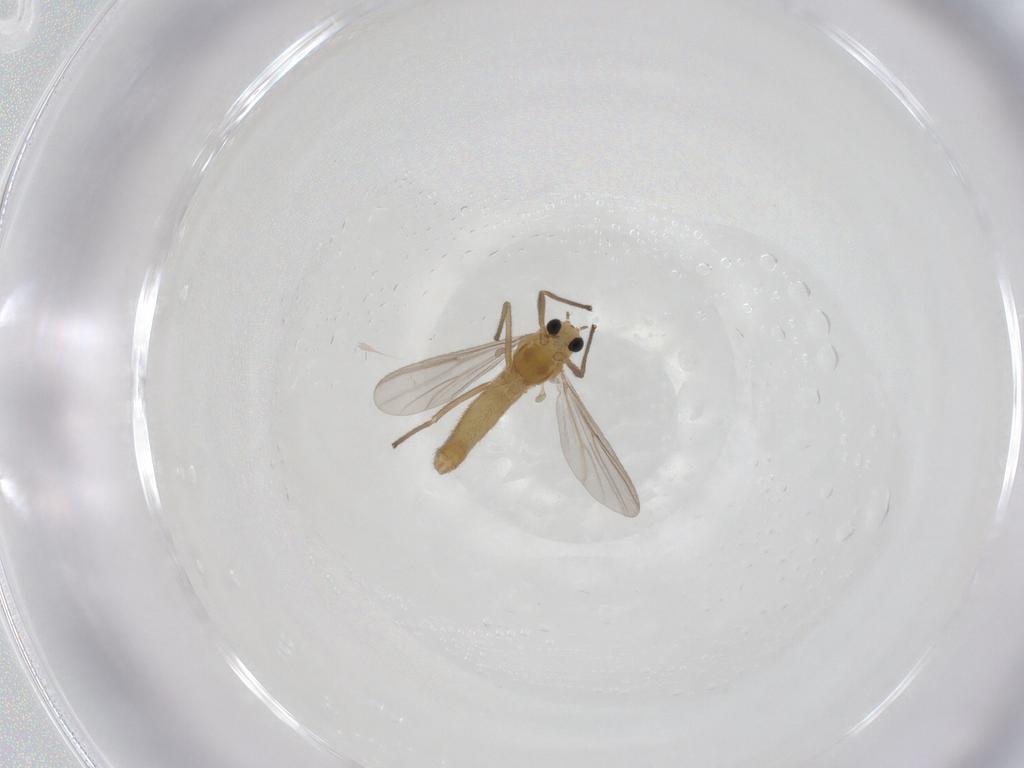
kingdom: Animalia
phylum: Arthropoda
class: Insecta
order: Diptera
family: Chironomidae
